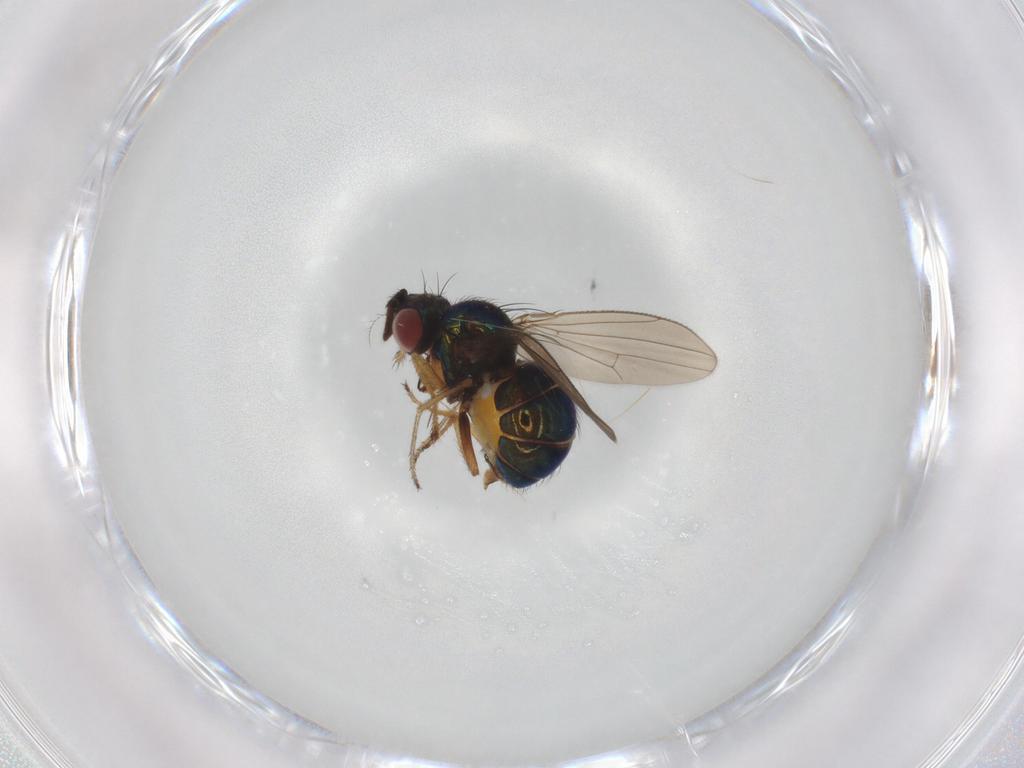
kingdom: Animalia
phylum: Arthropoda
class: Insecta
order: Diptera
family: Ephydridae
